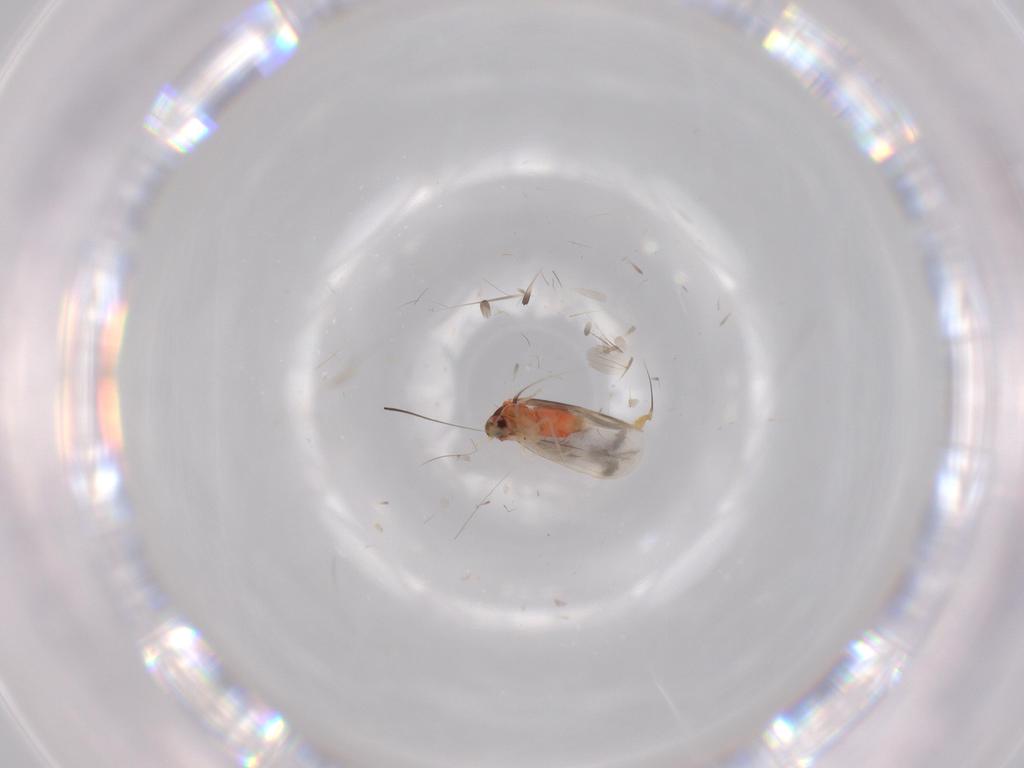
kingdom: Animalia
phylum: Arthropoda
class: Insecta
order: Hemiptera
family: Aleyrodidae
